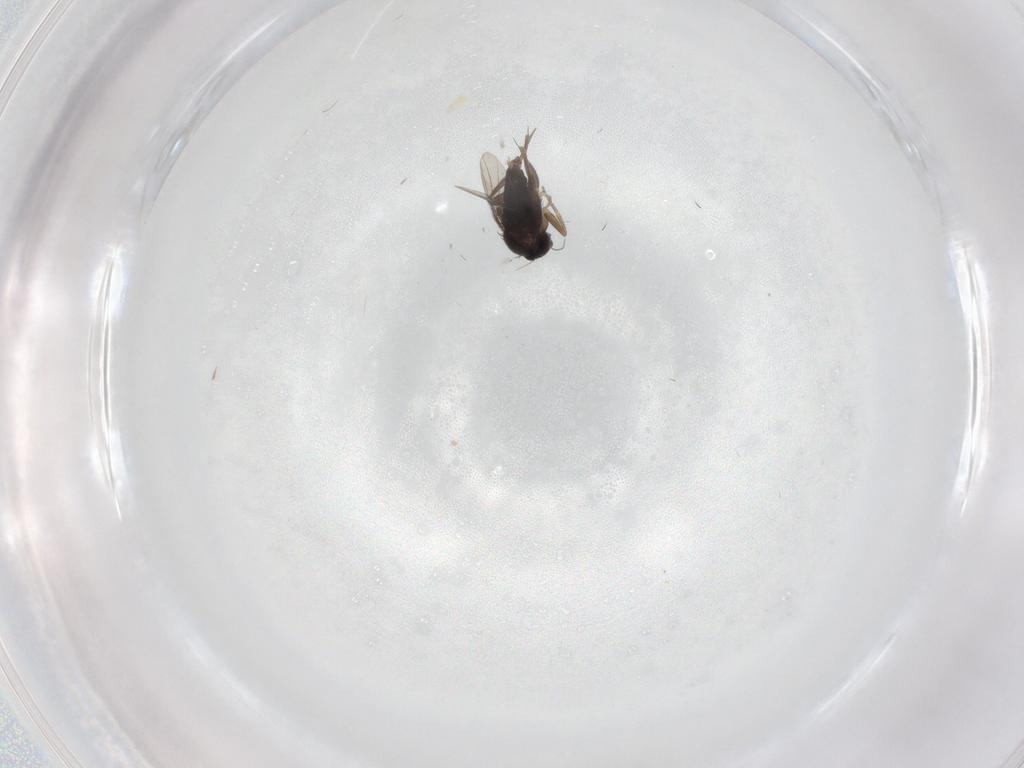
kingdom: Animalia
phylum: Arthropoda
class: Insecta
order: Diptera
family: Phoridae
